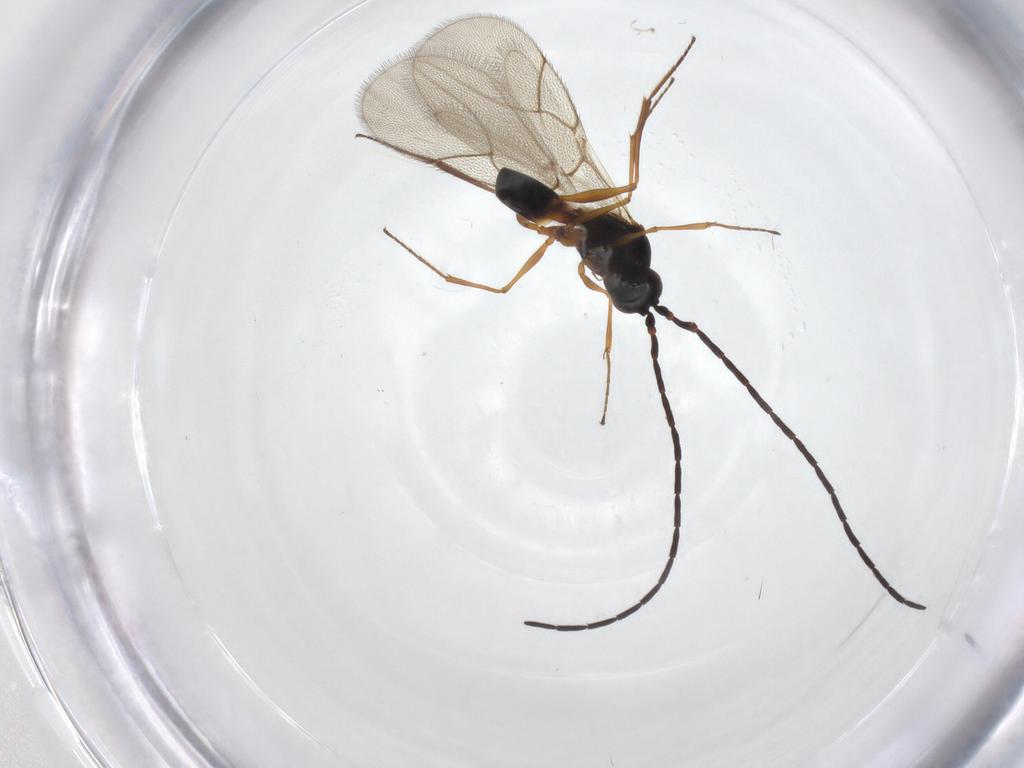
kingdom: Animalia
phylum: Arthropoda
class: Insecta
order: Hymenoptera
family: Figitidae
